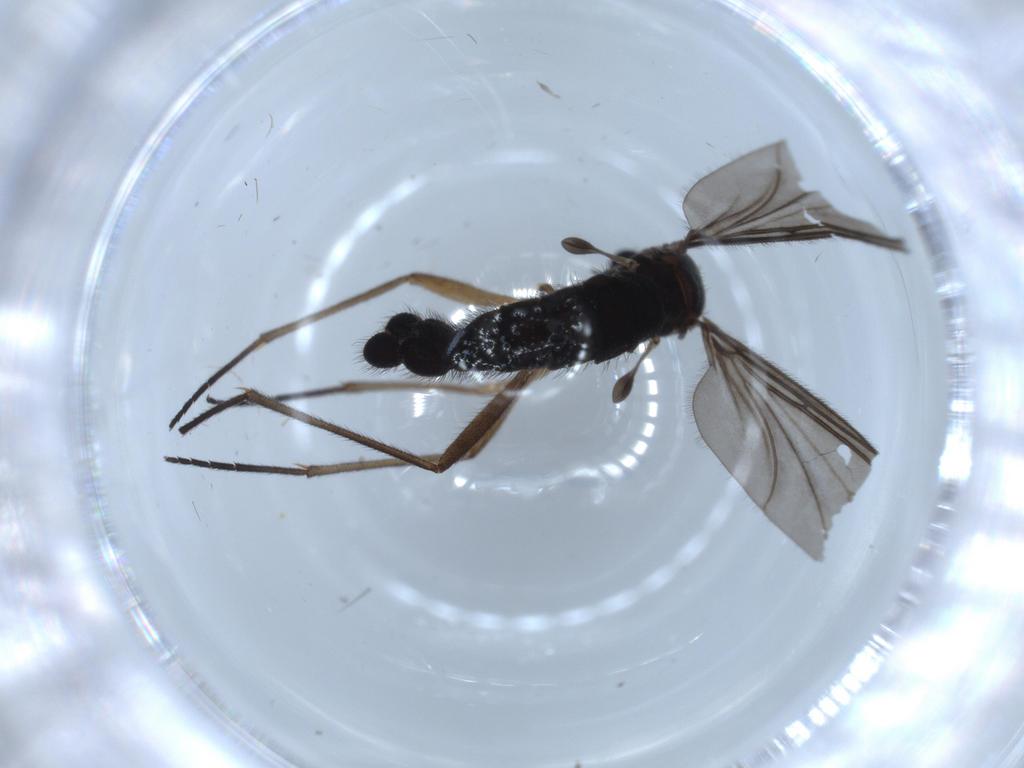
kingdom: Animalia
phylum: Arthropoda
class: Insecta
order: Diptera
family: Sciaridae
